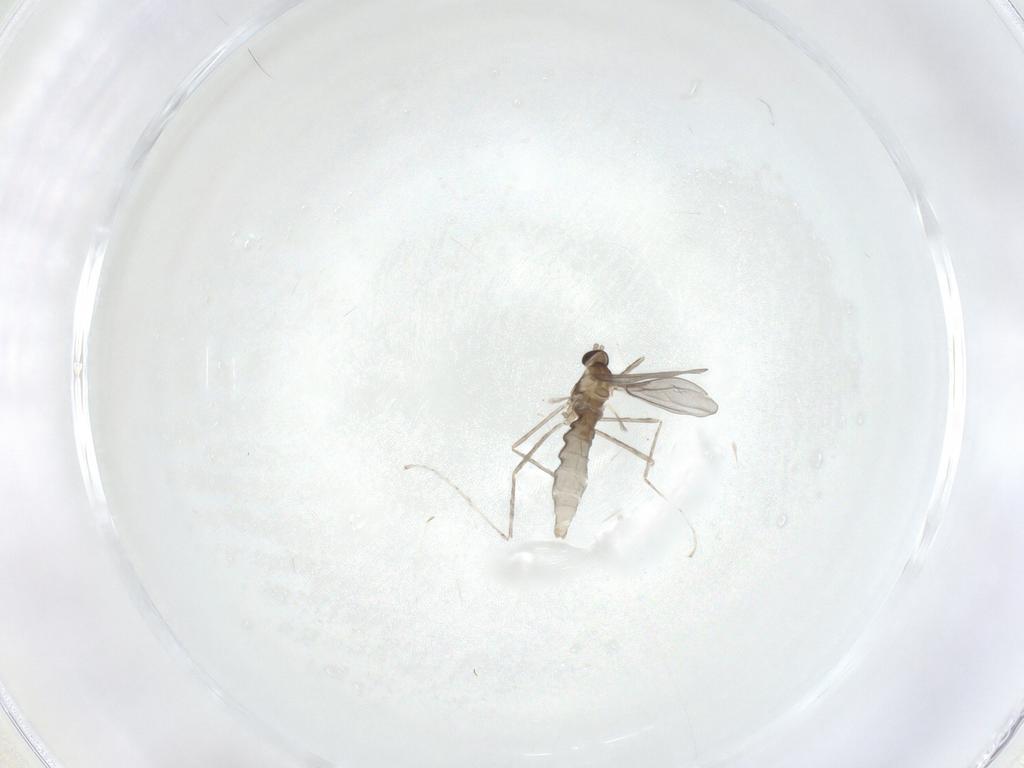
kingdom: Animalia
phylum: Arthropoda
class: Insecta
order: Diptera
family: Cecidomyiidae
